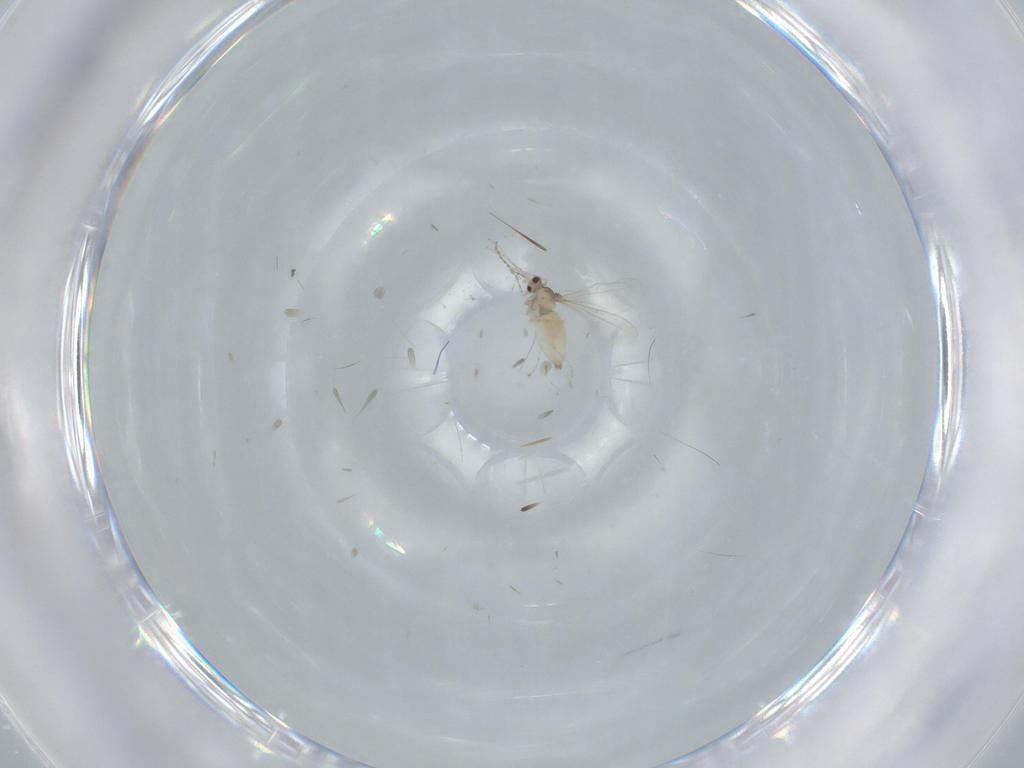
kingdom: Animalia
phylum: Arthropoda
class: Insecta
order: Diptera
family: Cecidomyiidae
